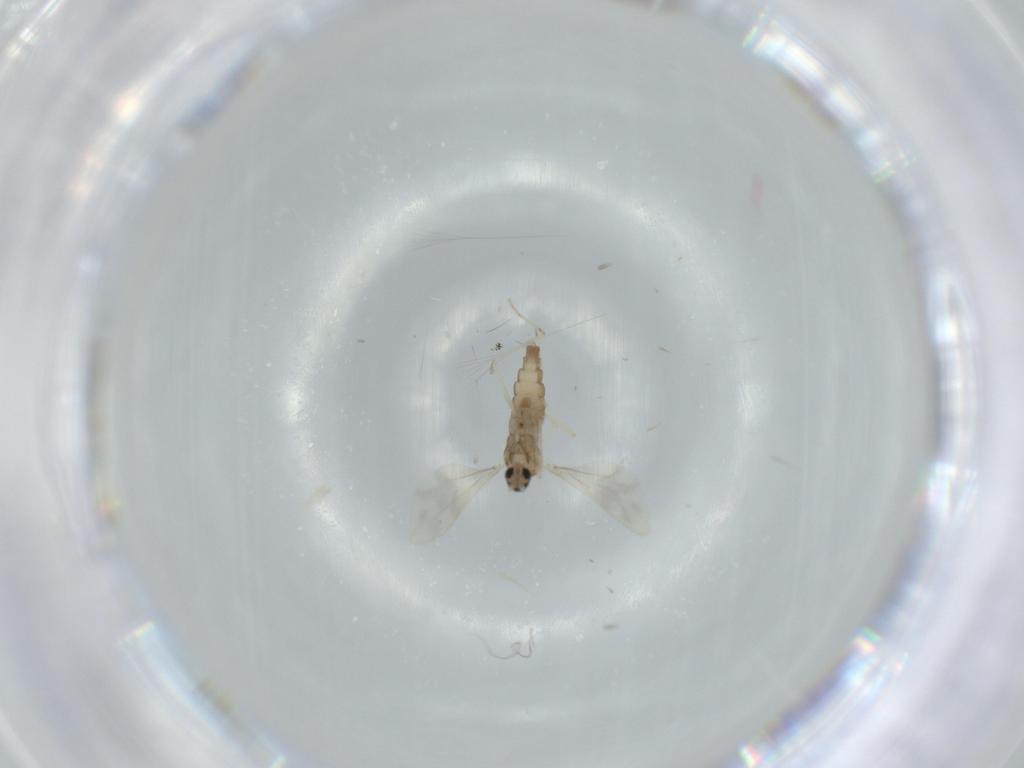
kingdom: Animalia
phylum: Arthropoda
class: Insecta
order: Diptera
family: Cecidomyiidae
